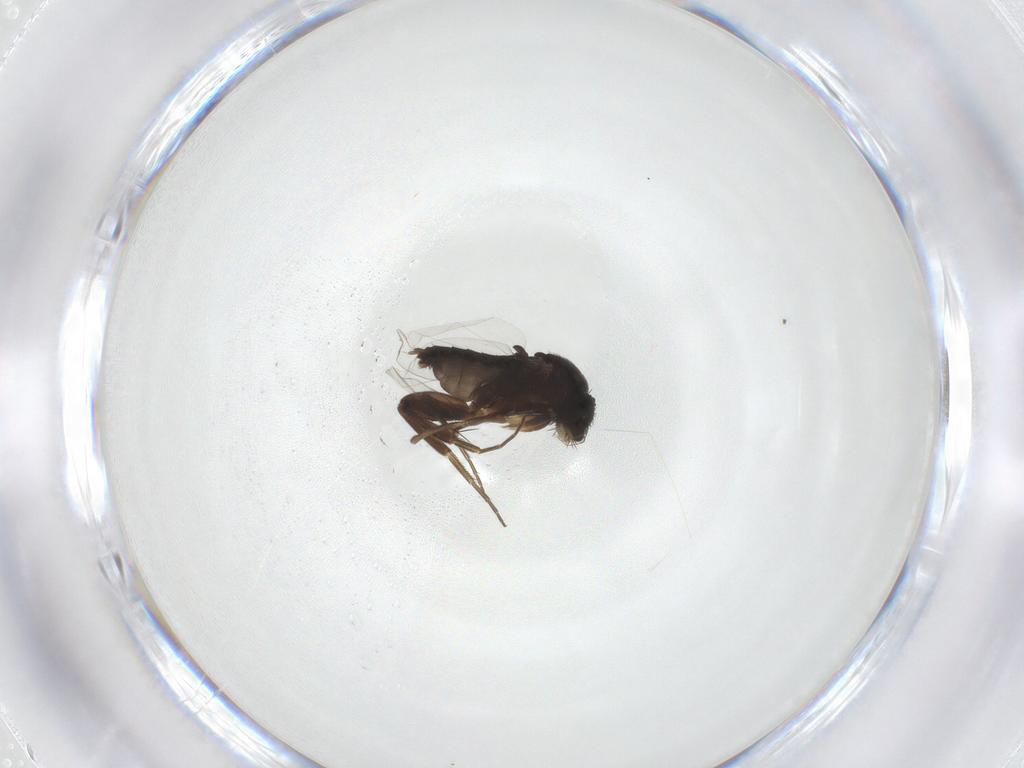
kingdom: Animalia
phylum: Arthropoda
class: Insecta
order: Diptera
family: Phoridae
